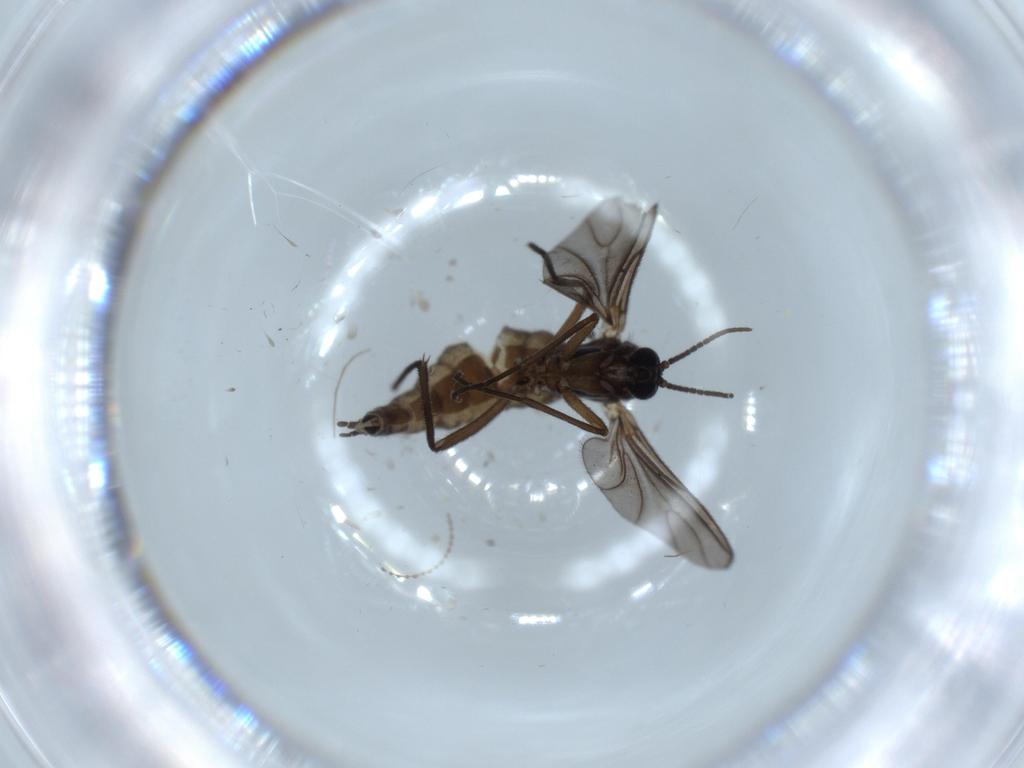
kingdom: Animalia
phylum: Arthropoda
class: Insecta
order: Diptera
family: Sciaridae
